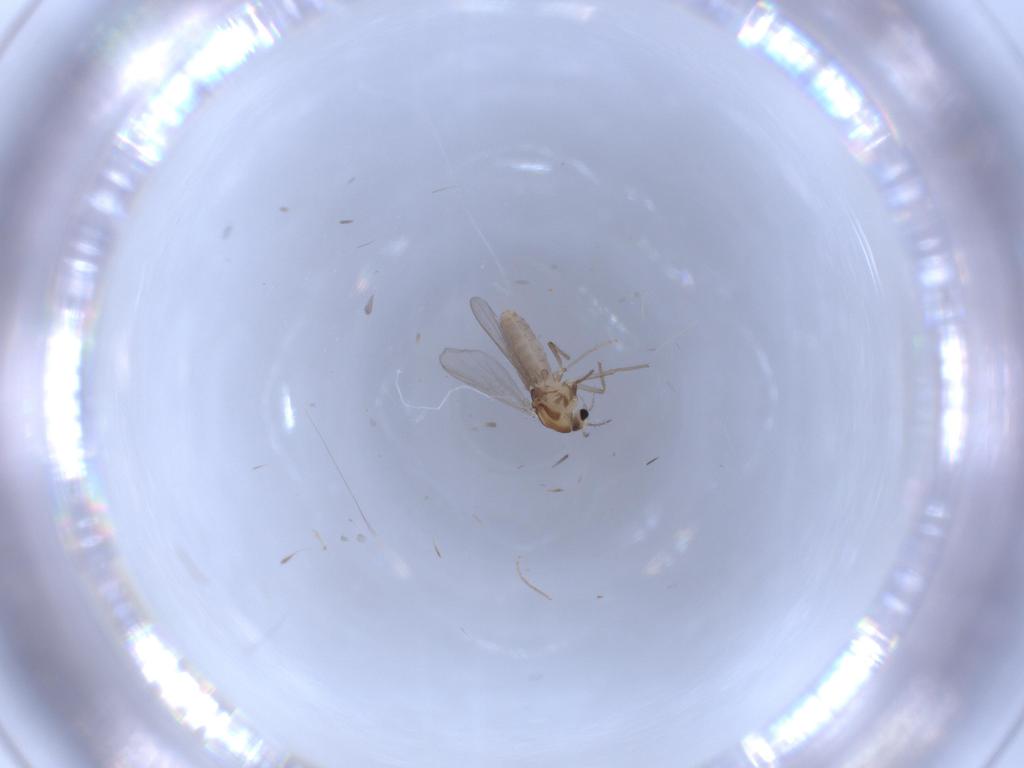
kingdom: Animalia
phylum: Arthropoda
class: Insecta
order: Diptera
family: Chironomidae
